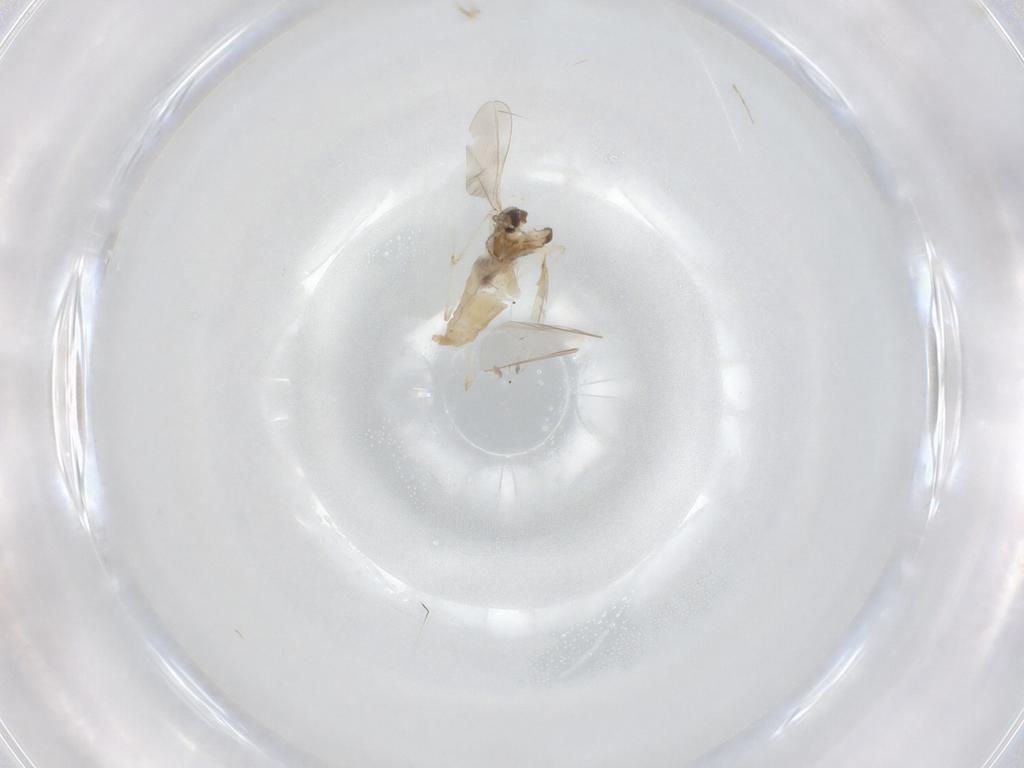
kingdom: Animalia
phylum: Arthropoda
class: Insecta
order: Diptera
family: Cecidomyiidae
